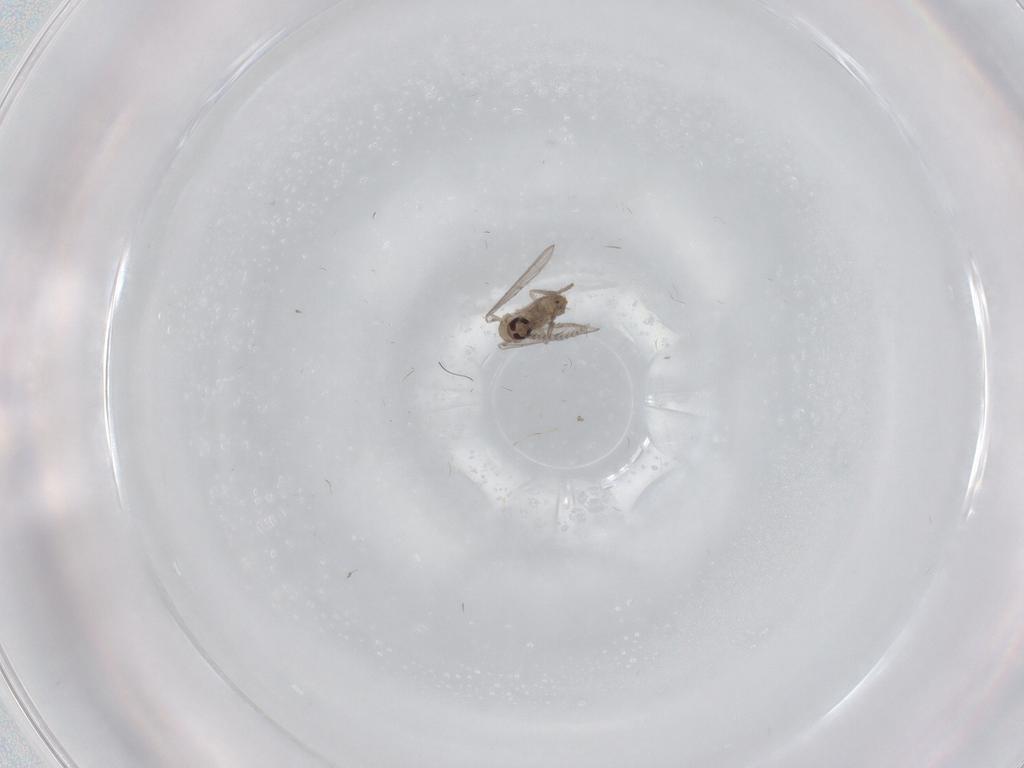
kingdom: Animalia
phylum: Arthropoda
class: Insecta
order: Diptera
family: Psychodidae
